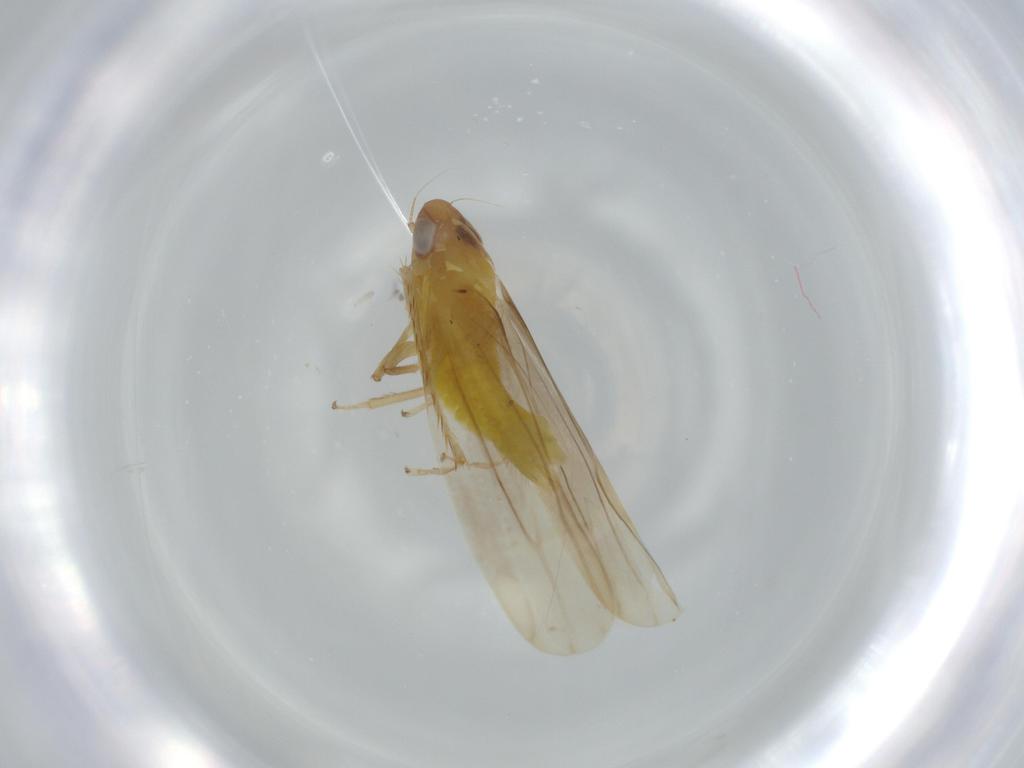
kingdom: Animalia
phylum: Arthropoda
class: Insecta
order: Hemiptera
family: Cicadellidae
